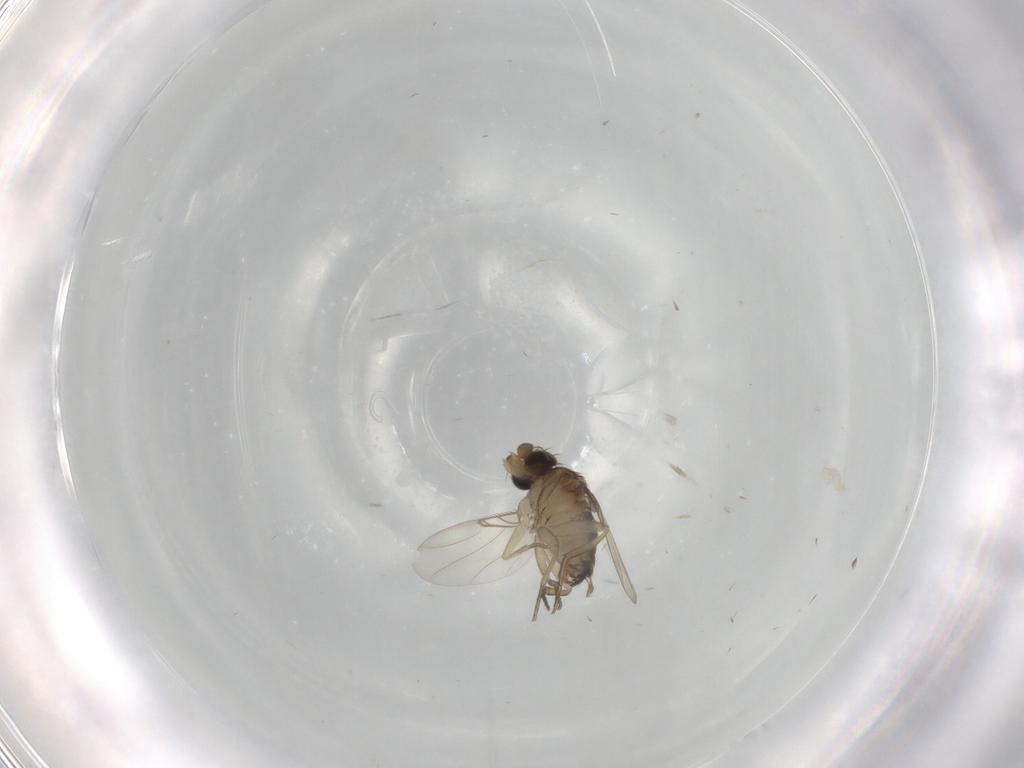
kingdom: Animalia
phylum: Arthropoda
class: Insecta
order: Diptera
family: Cecidomyiidae
